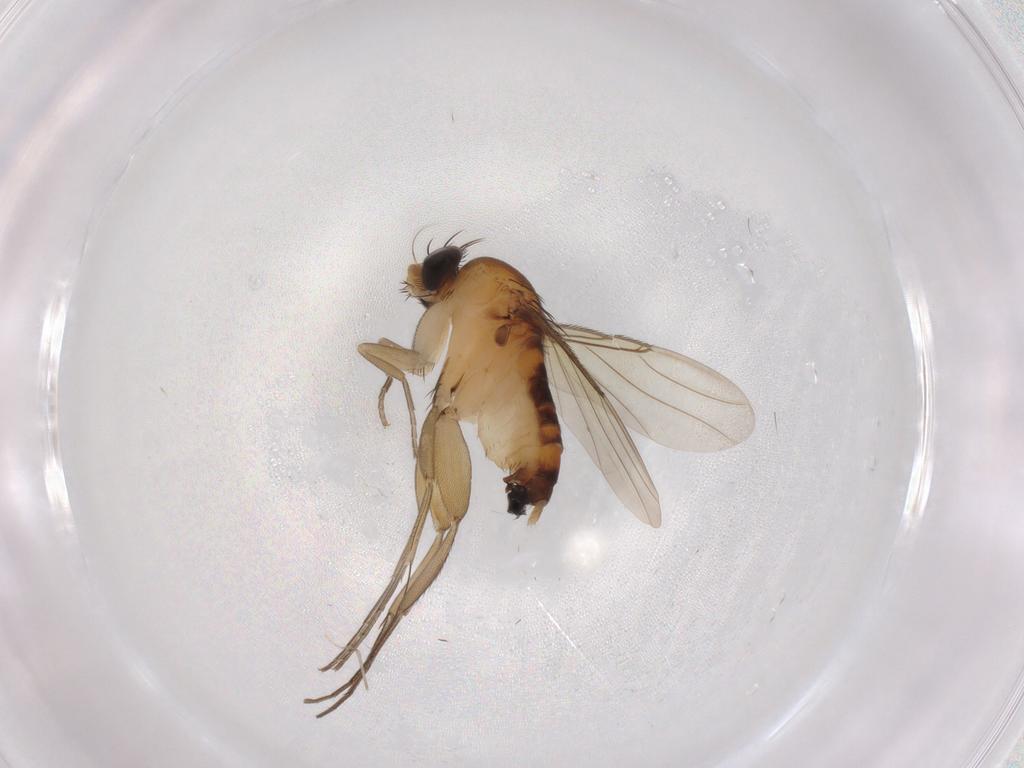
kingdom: Animalia
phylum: Arthropoda
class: Insecta
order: Diptera
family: Phoridae
